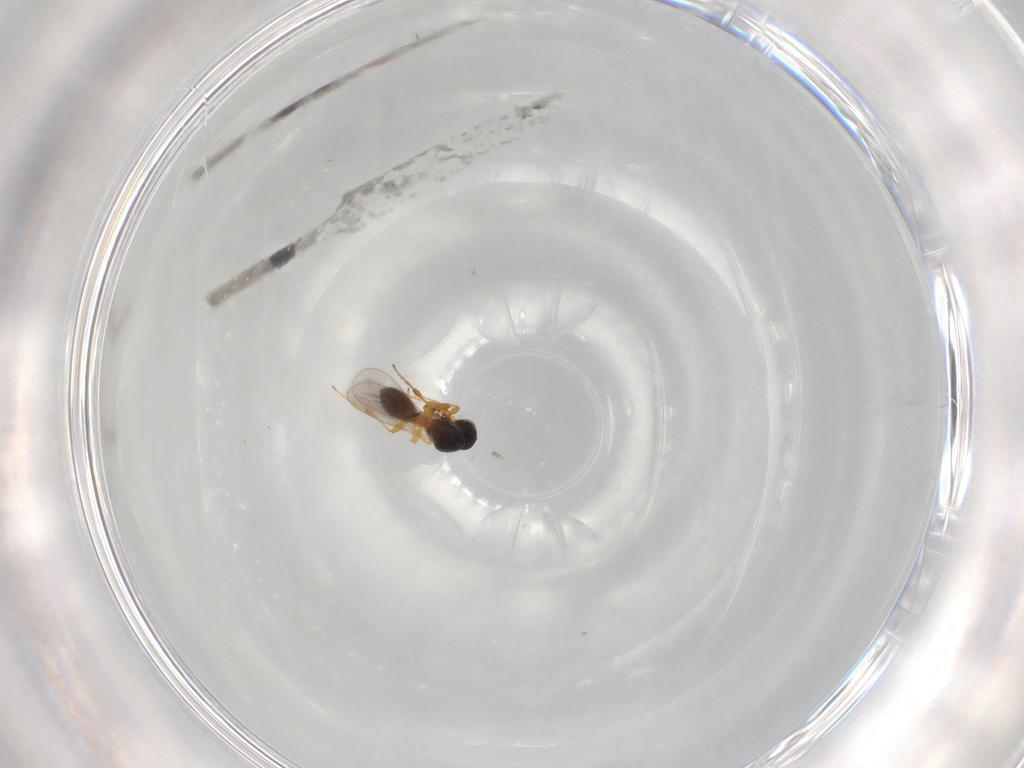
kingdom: Animalia
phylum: Arthropoda
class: Insecta
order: Hymenoptera
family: Platygastridae
